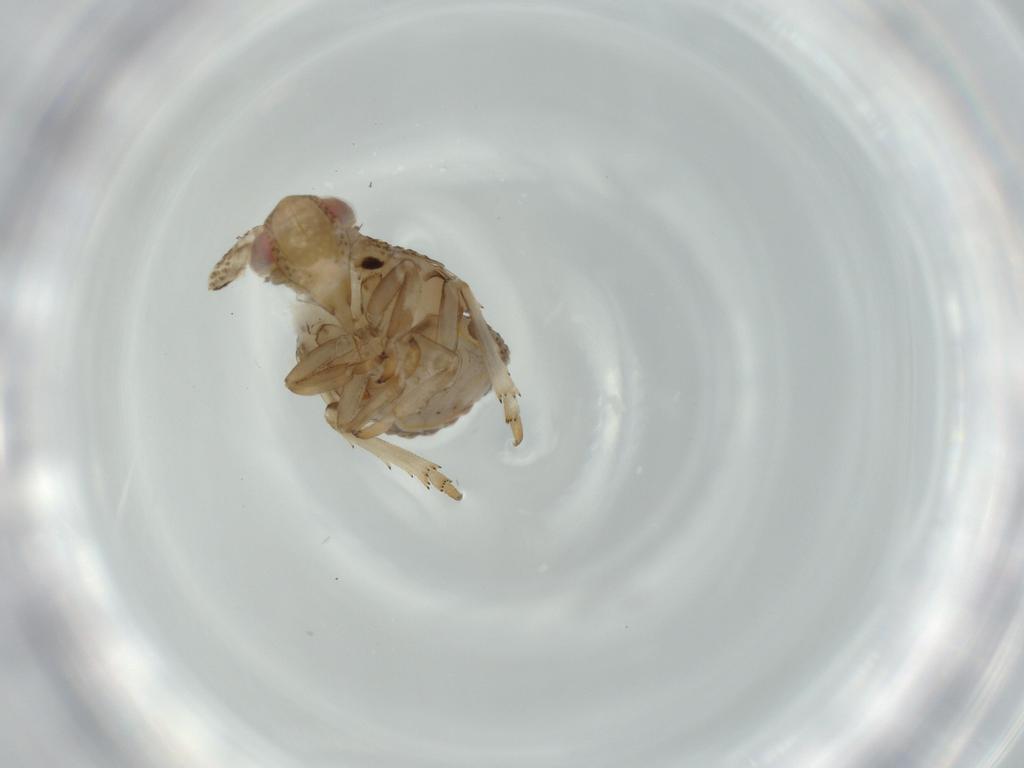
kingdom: Animalia
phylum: Arthropoda
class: Insecta
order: Hemiptera
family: Issidae
